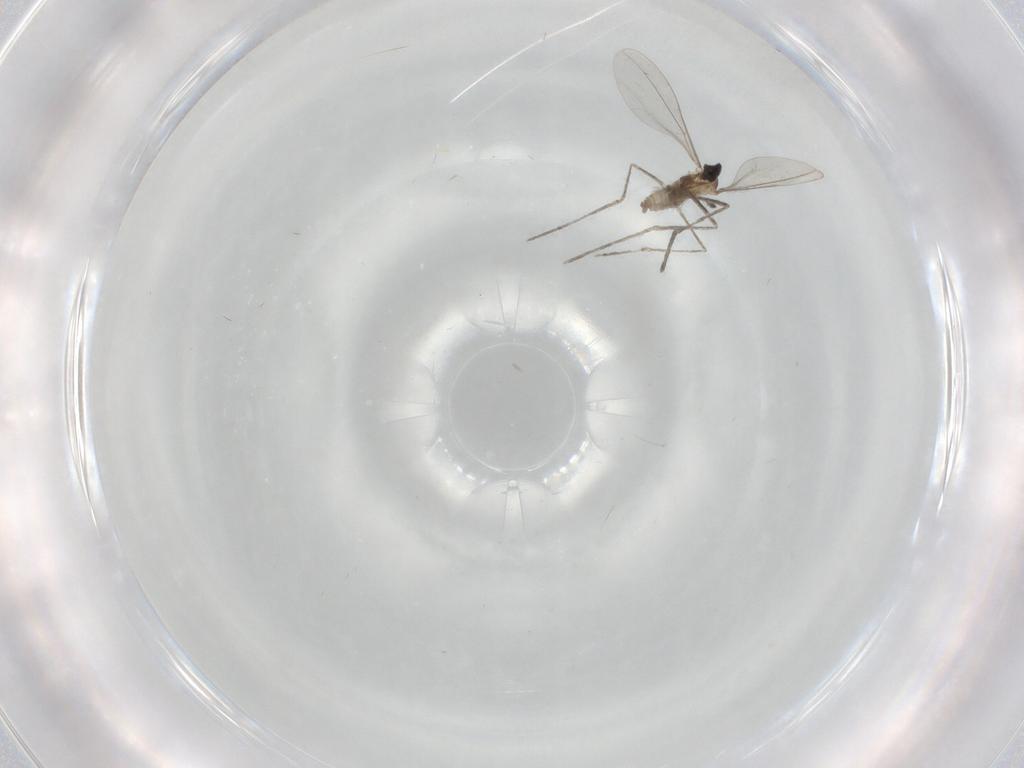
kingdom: Animalia
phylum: Arthropoda
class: Insecta
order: Diptera
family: Cecidomyiidae
